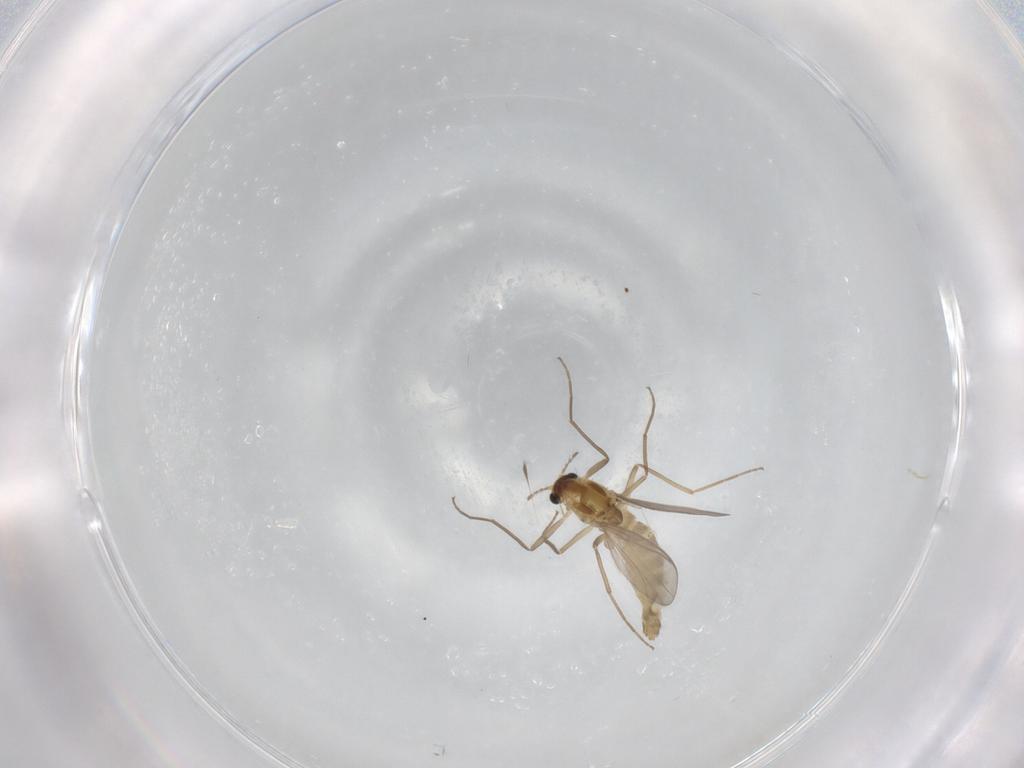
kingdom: Animalia
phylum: Arthropoda
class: Insecta
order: Diptera
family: Chironomidae
